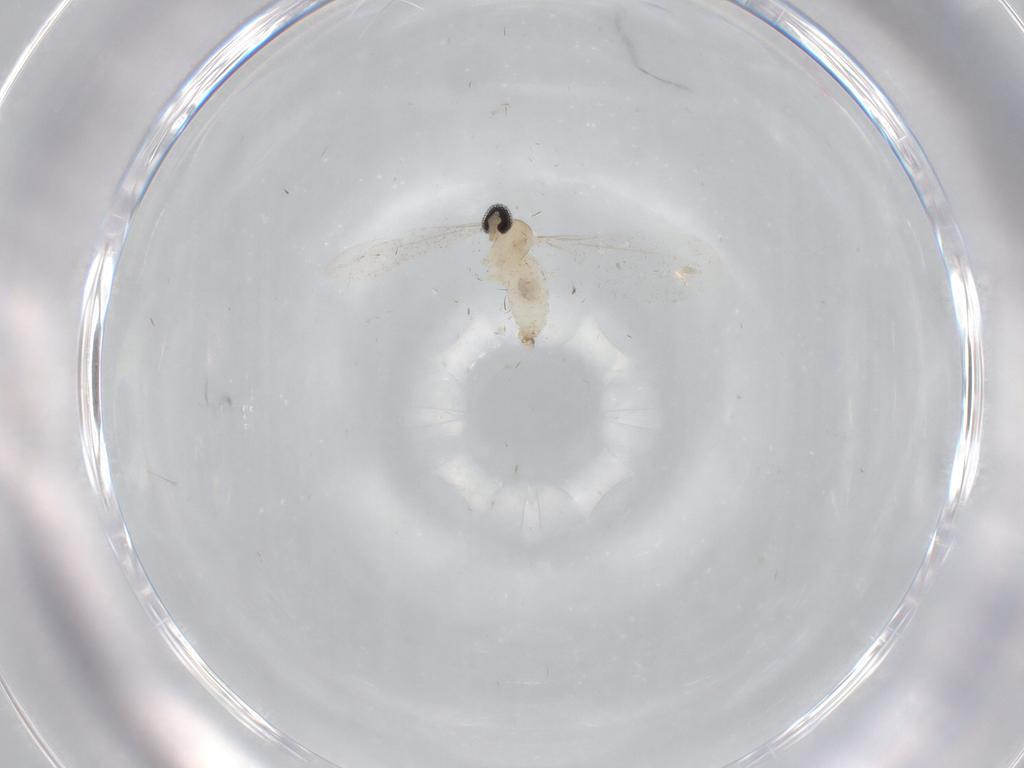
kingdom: Animalia
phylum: Arthropoda
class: Insecta
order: Diptera
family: Cecidomyiidae
